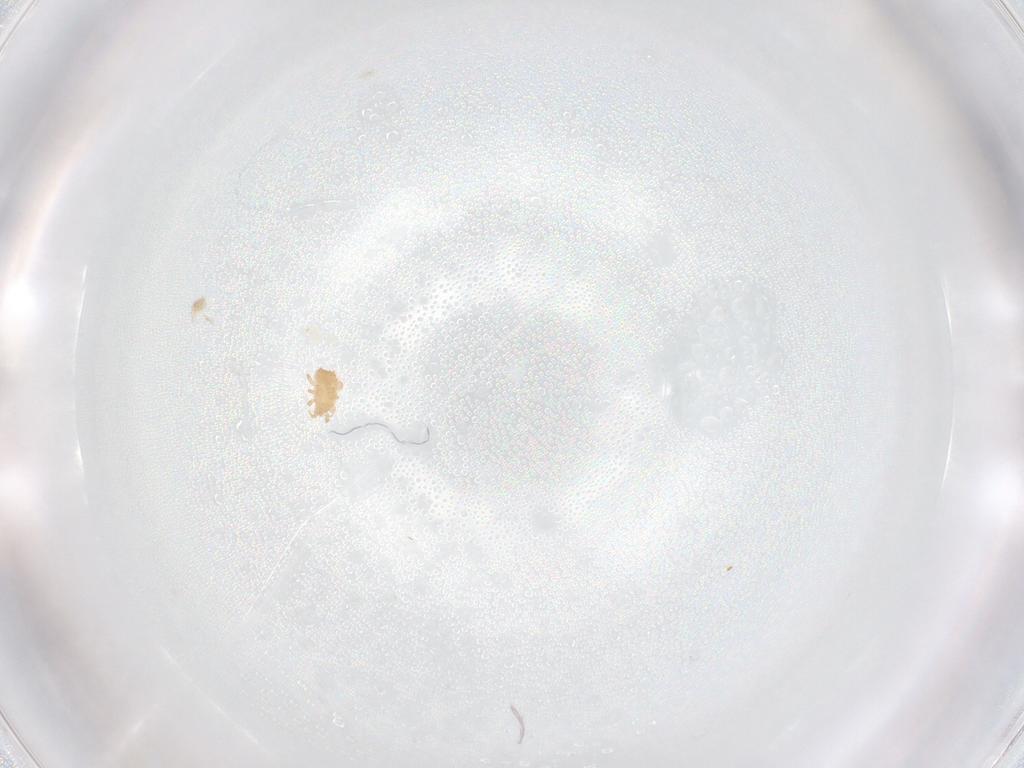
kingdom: Animalia
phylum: Arthropoda
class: Arachnida
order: Mesostigmata
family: Ascidae
